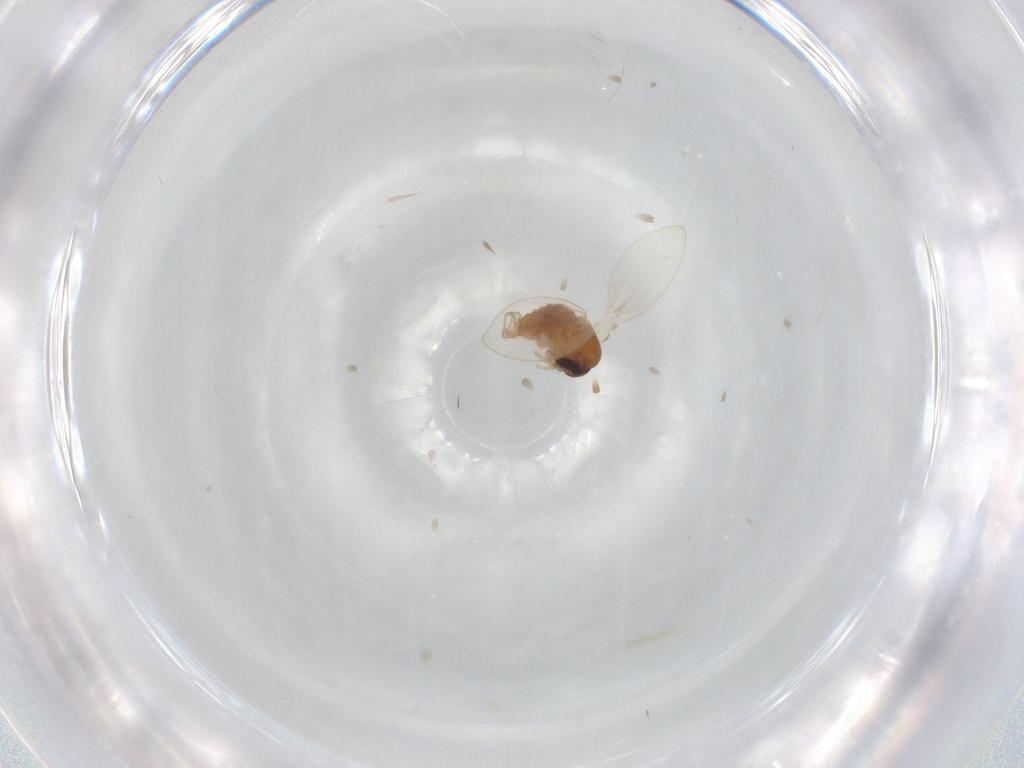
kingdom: Animalia
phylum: Arthropoda
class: Insecta
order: Diptera
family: Psychodidae
